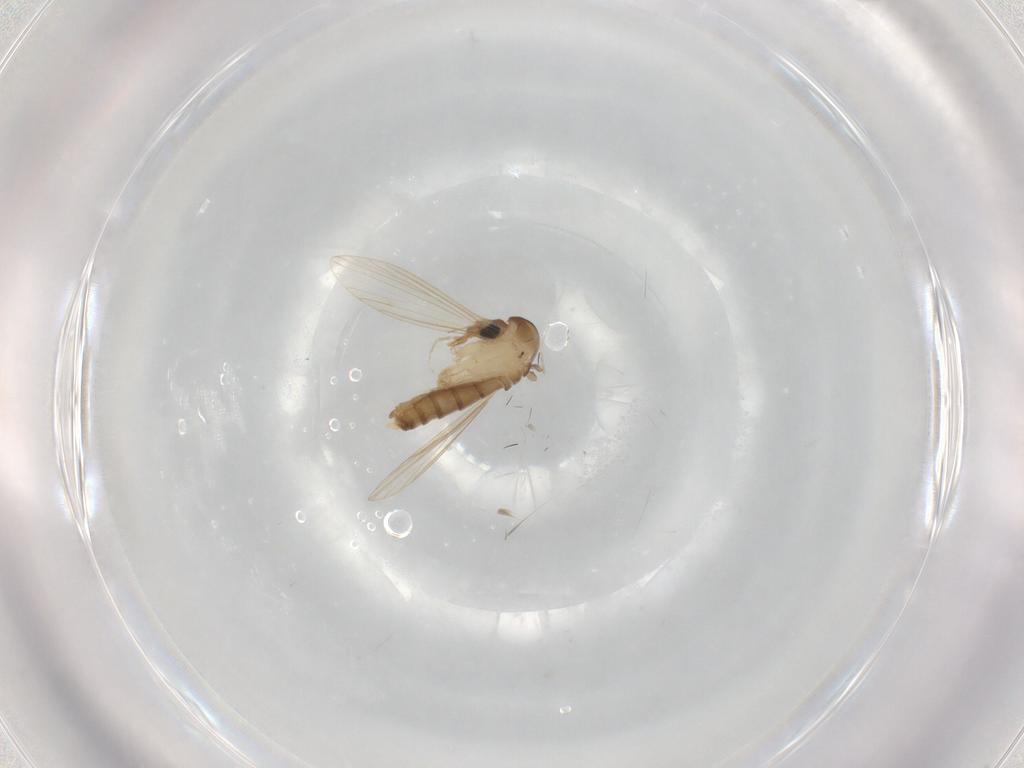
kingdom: Animalia
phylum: Arthropoda
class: Insecta
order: Diptera
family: Psychodidae
